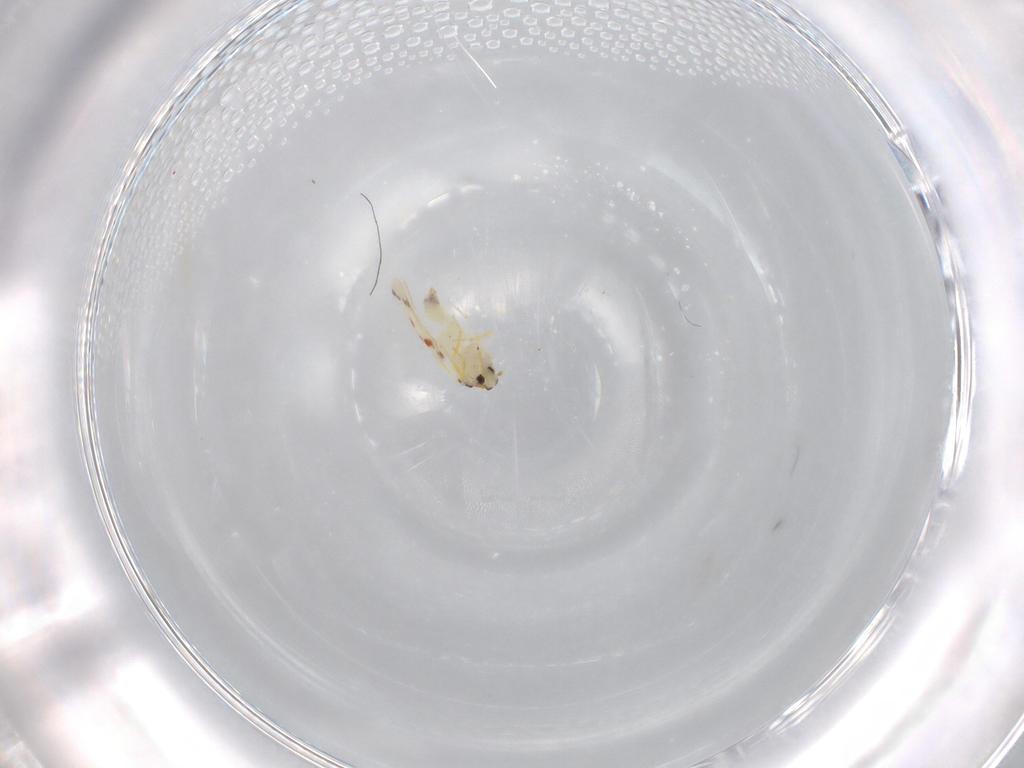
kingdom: Animalia
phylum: Arthropoda
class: Insecta
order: Hemiptera
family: Aleyrodidae
